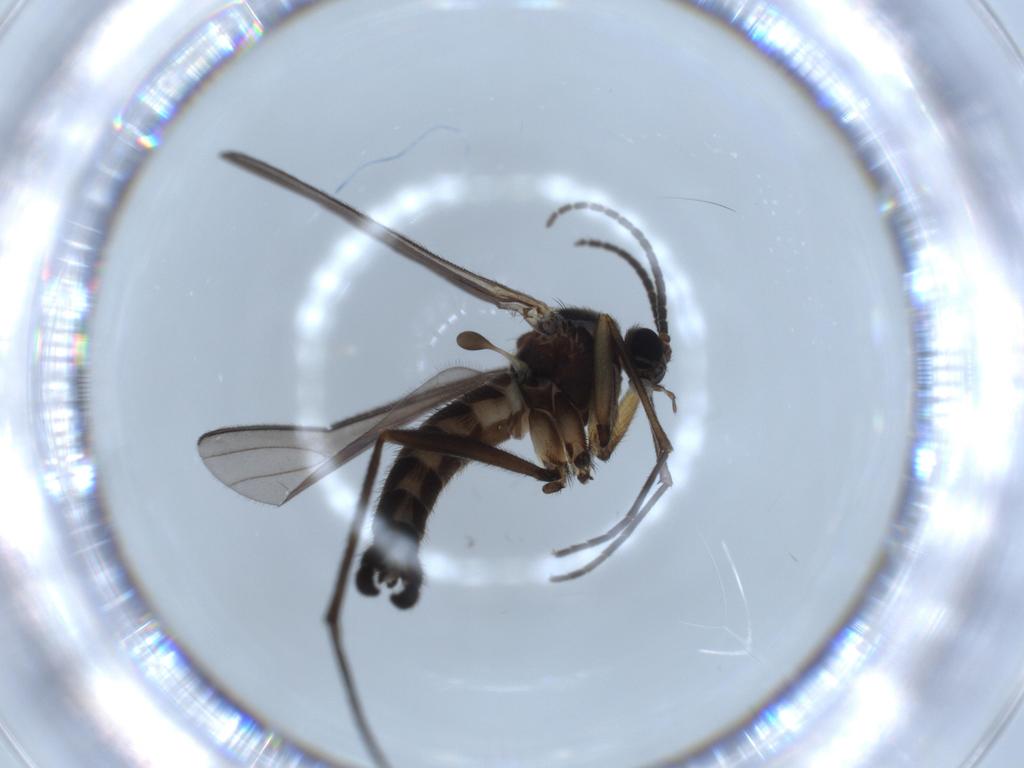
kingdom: Animalia
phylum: Arthropoda
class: Insecta
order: Diptera
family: Sciaridae
